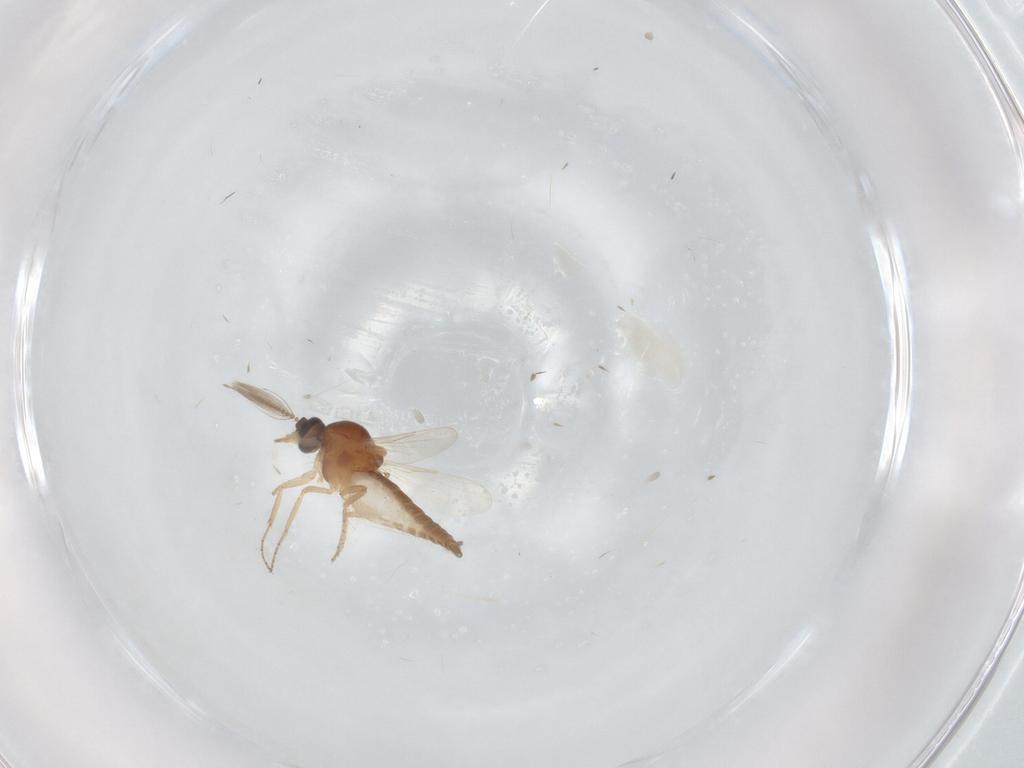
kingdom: Animalia
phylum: Arthropoda
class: Insecta
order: Diptera
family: Ceratopogonidae
